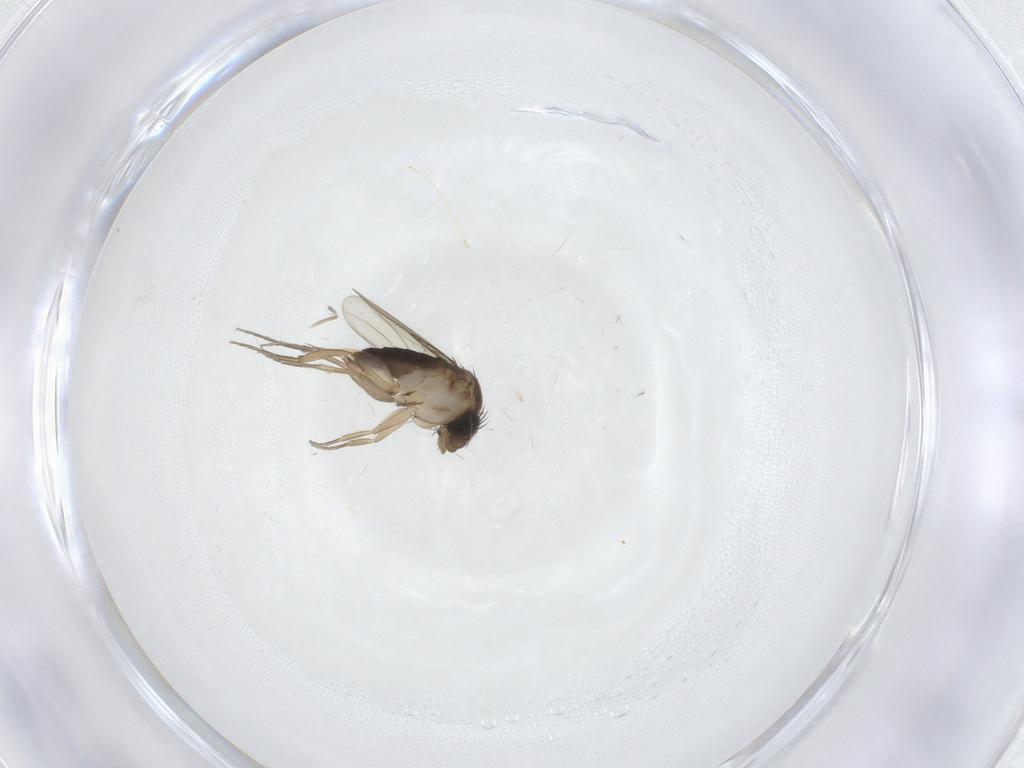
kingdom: Animalia
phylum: Arthropoda
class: Insecta
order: Diptera
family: Phoridae
